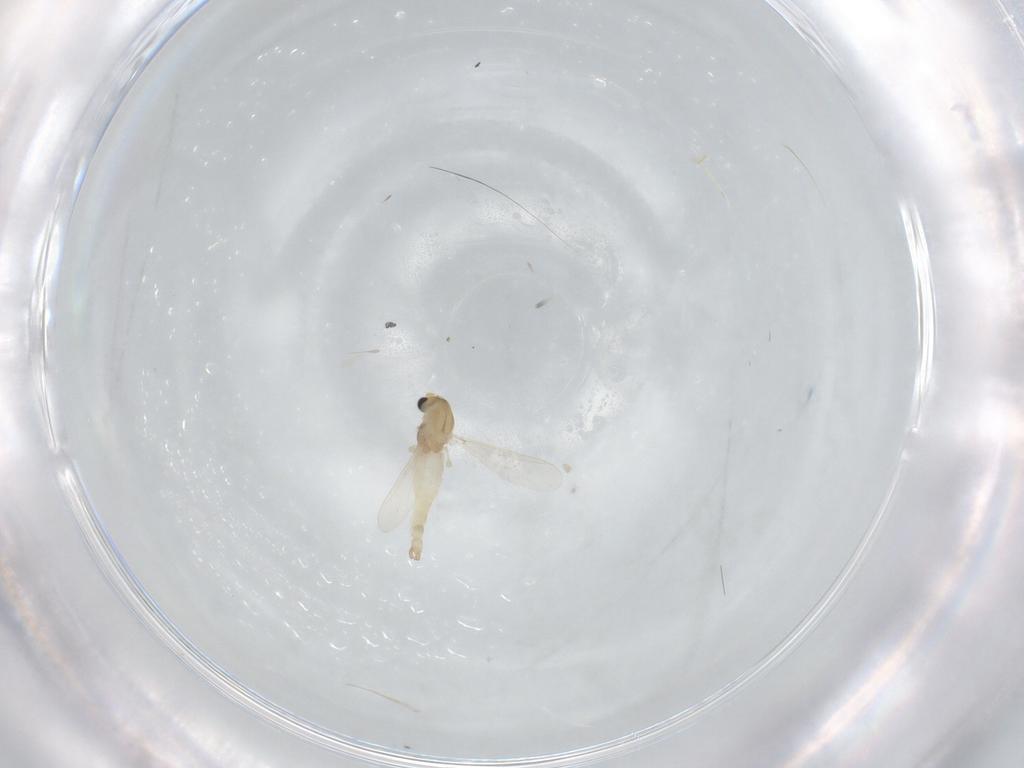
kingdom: Animalia
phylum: Arthropoda
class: Insecta
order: Diptera
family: Chironomidae
